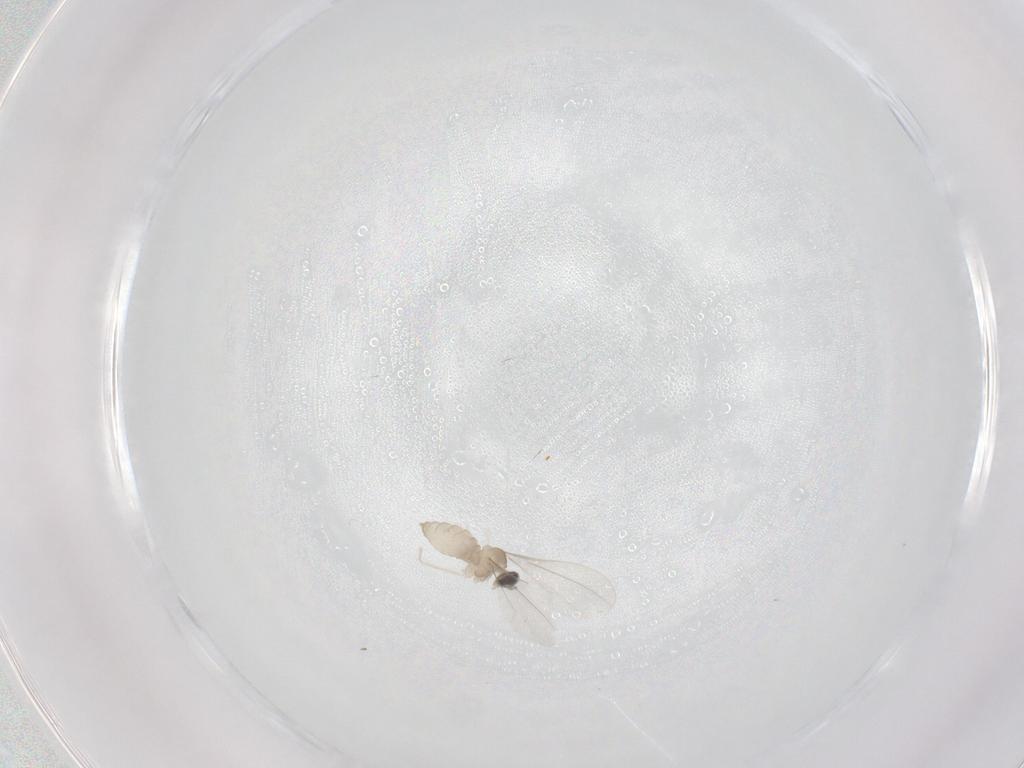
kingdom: Animalia
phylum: Arthropoda
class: Insecta
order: Diptera
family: Cecidomyiidae
